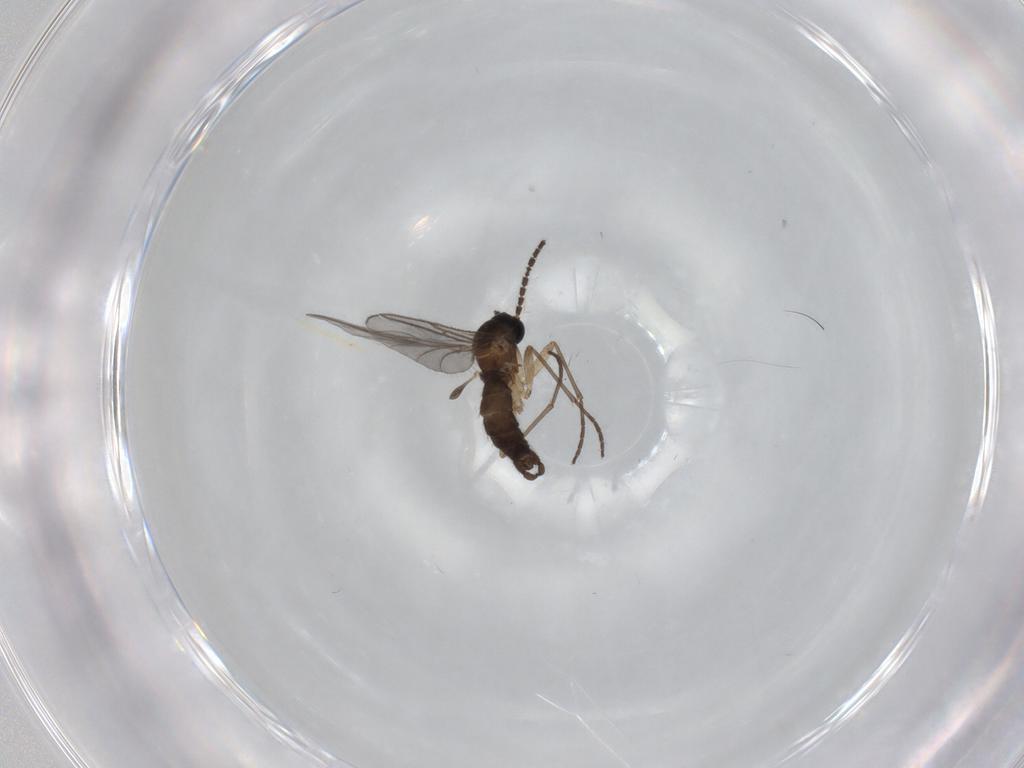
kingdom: Animalia
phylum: Arthropoda
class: Insecta
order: Diptera
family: Sciaridae
